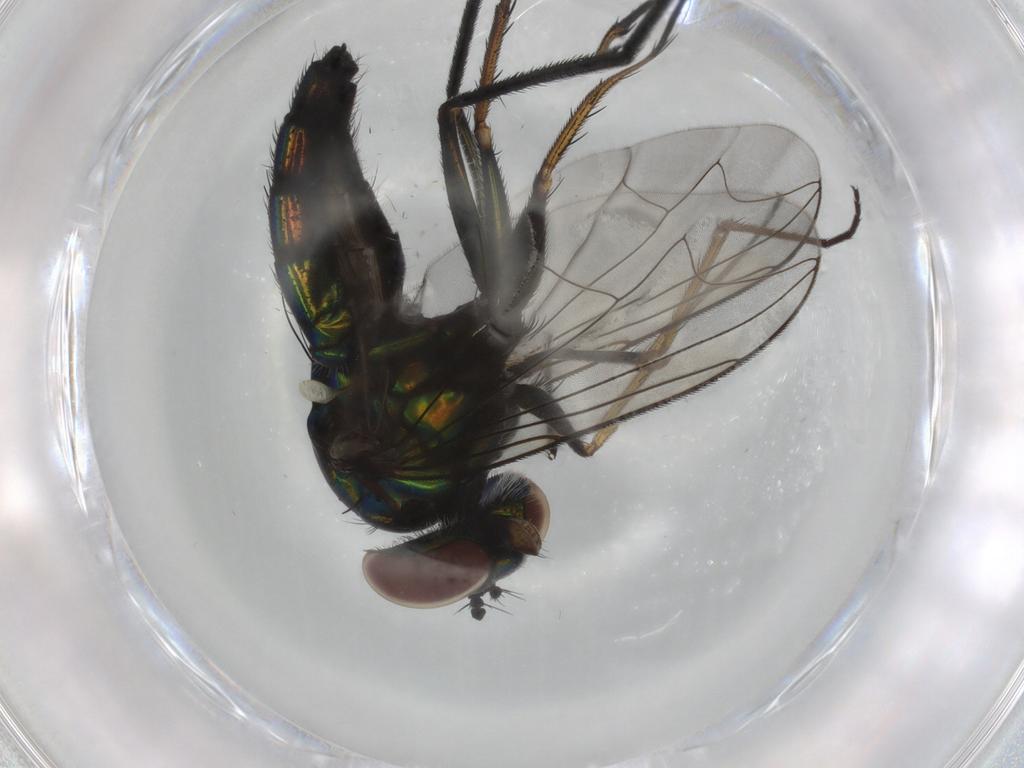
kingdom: Animalia
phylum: Arthropoda
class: Insecta
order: Diptera
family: Dolichopodidae
